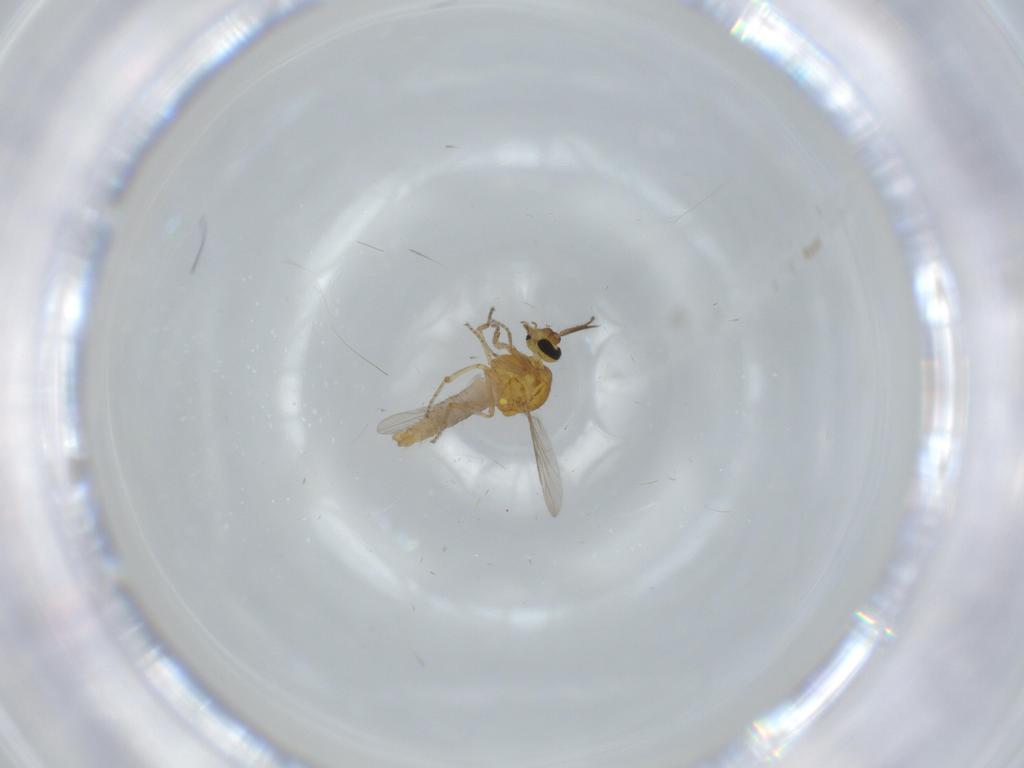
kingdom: Animalia
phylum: Arthropoda
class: Insecta
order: Diptera
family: Ceratopogonidae
